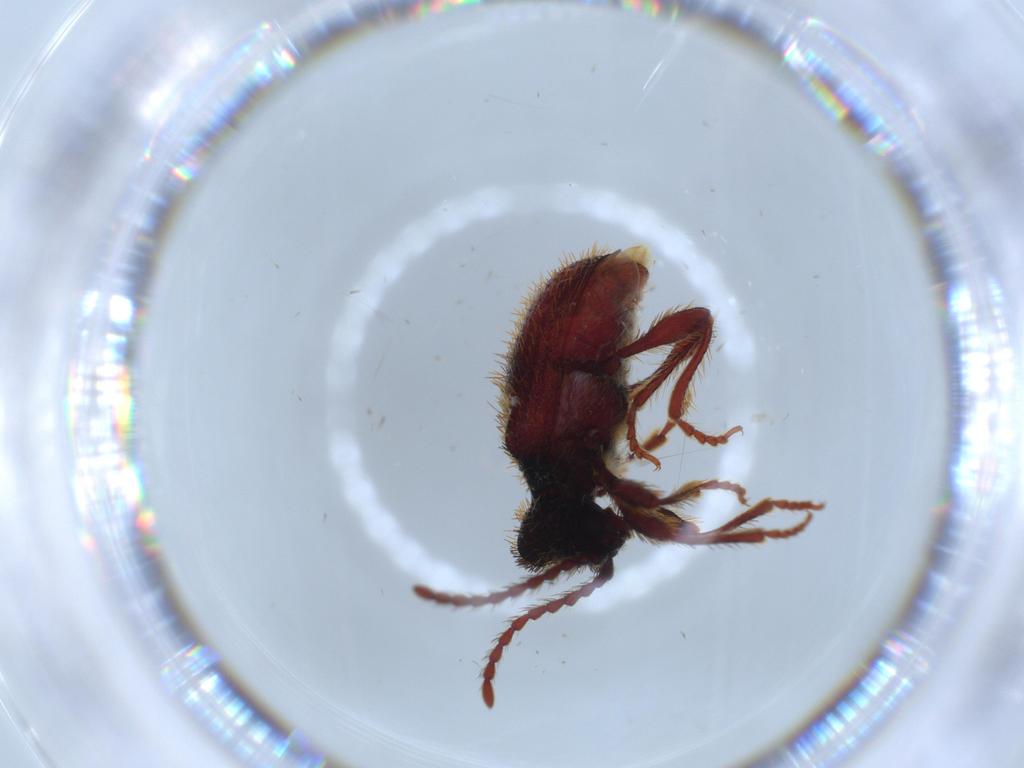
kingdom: Animalia
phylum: Arthropoda
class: Insecta
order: Coleoptera
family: Ptinidae
